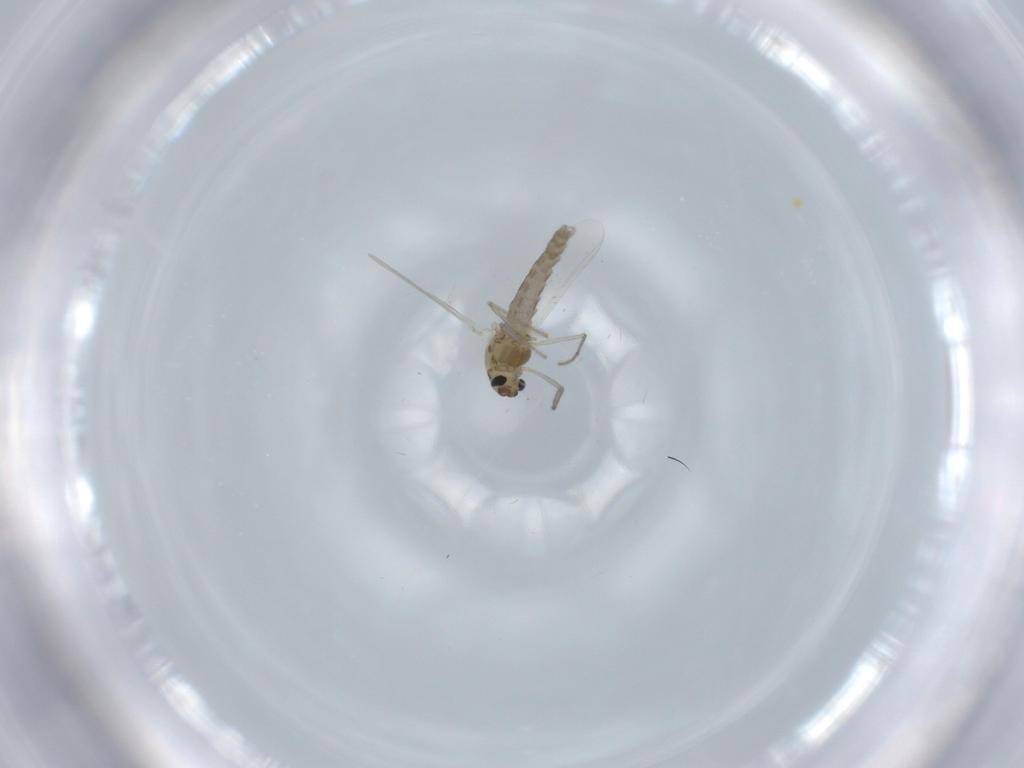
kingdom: Animalia
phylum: Arthropoda
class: Insecta
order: Diptera
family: Chironomidae
